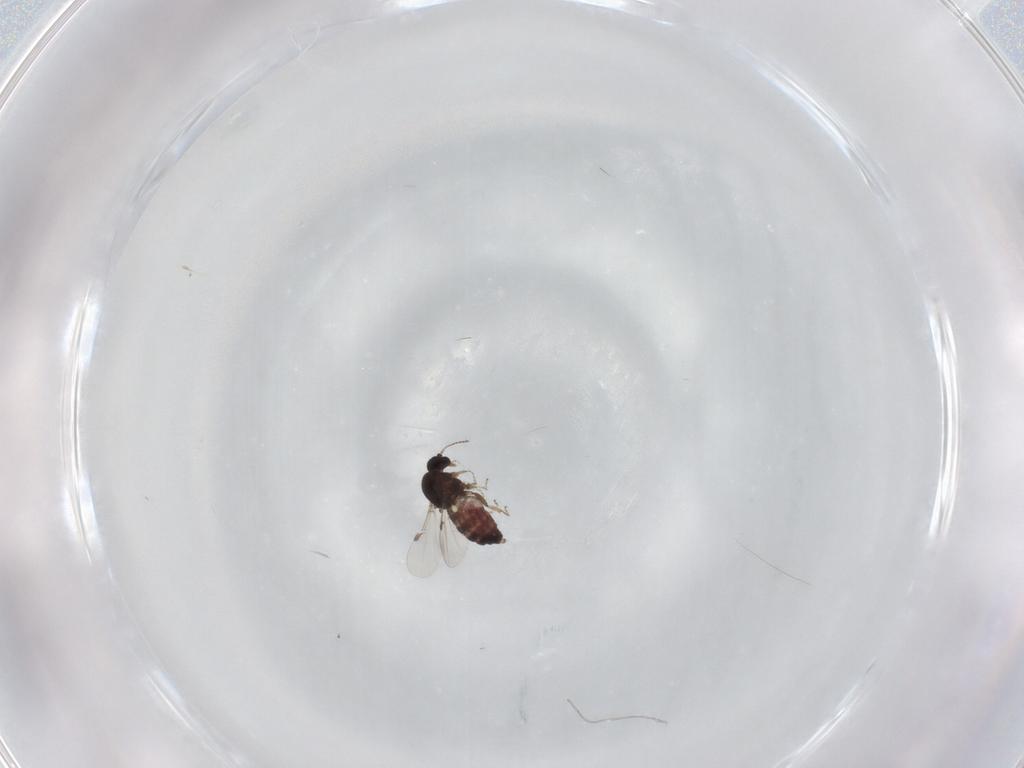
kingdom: Animalia
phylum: Arthropoda
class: Insecta
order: Diptera
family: Ceratopogonidae
